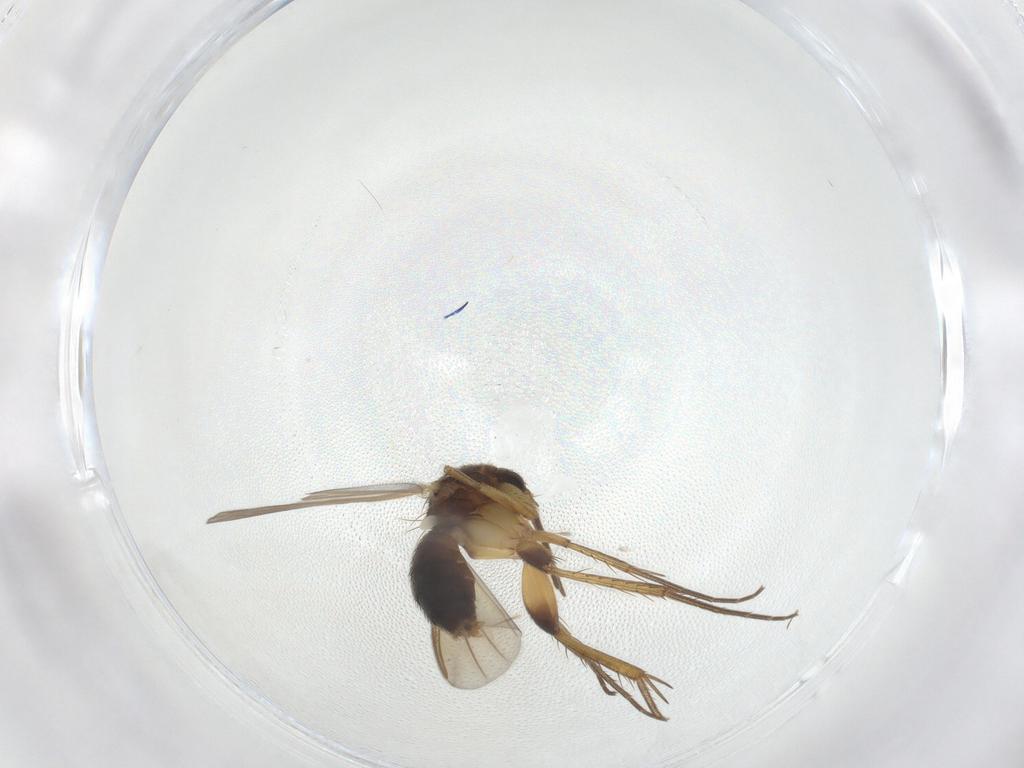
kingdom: Animalia
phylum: Arthropoda
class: Insecta
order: Diptera
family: Mycetophilidae
